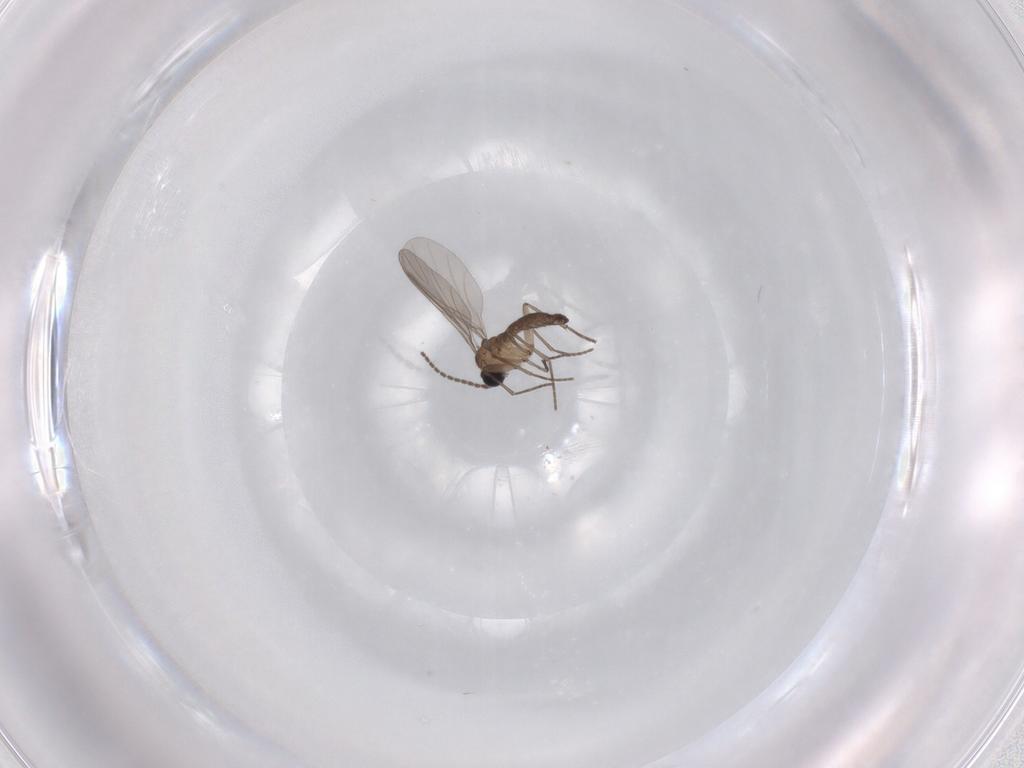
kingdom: Animalia
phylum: Arthropoda
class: Insecta
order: Diptera
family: Sciaridae
